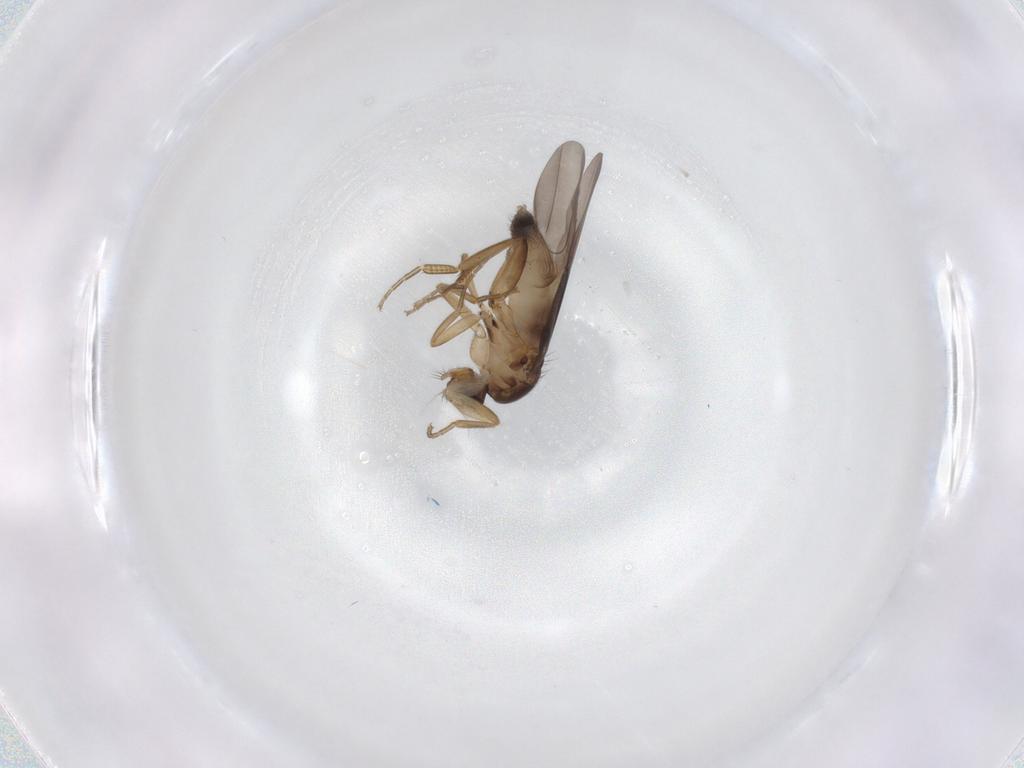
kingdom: Animalia
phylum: Arthropoda
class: Insecta
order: Diptera
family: Phoridae
